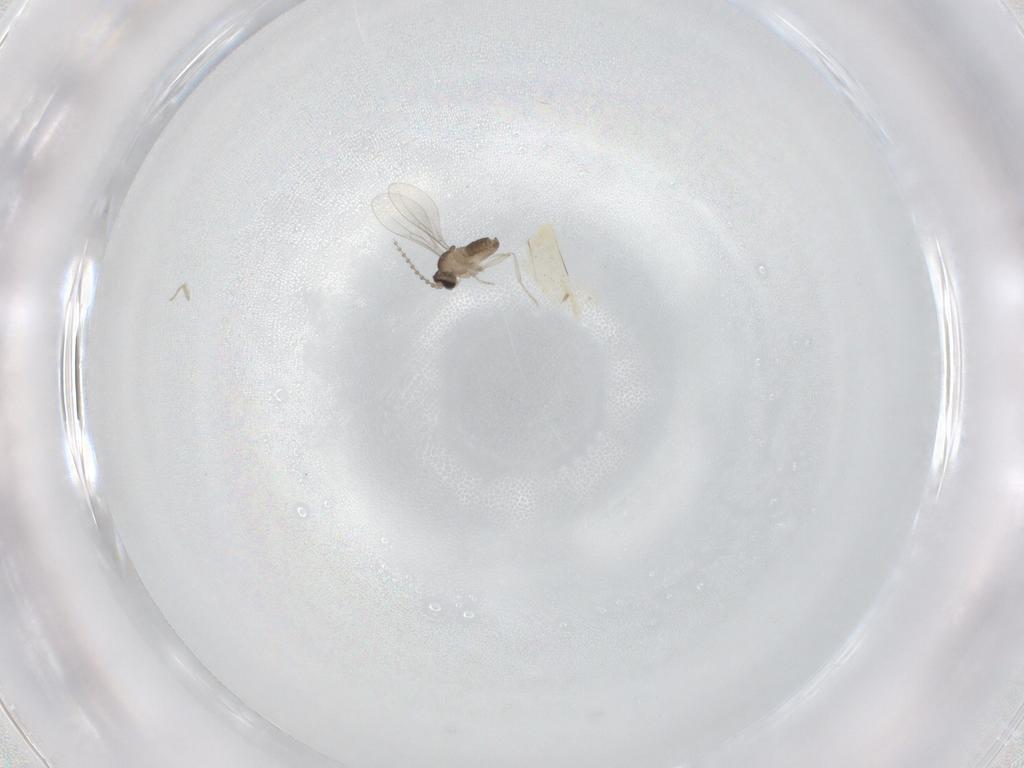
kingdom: Animalia
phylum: Arthropoda
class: Insecta
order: Diptera
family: Cecidomyiidae
